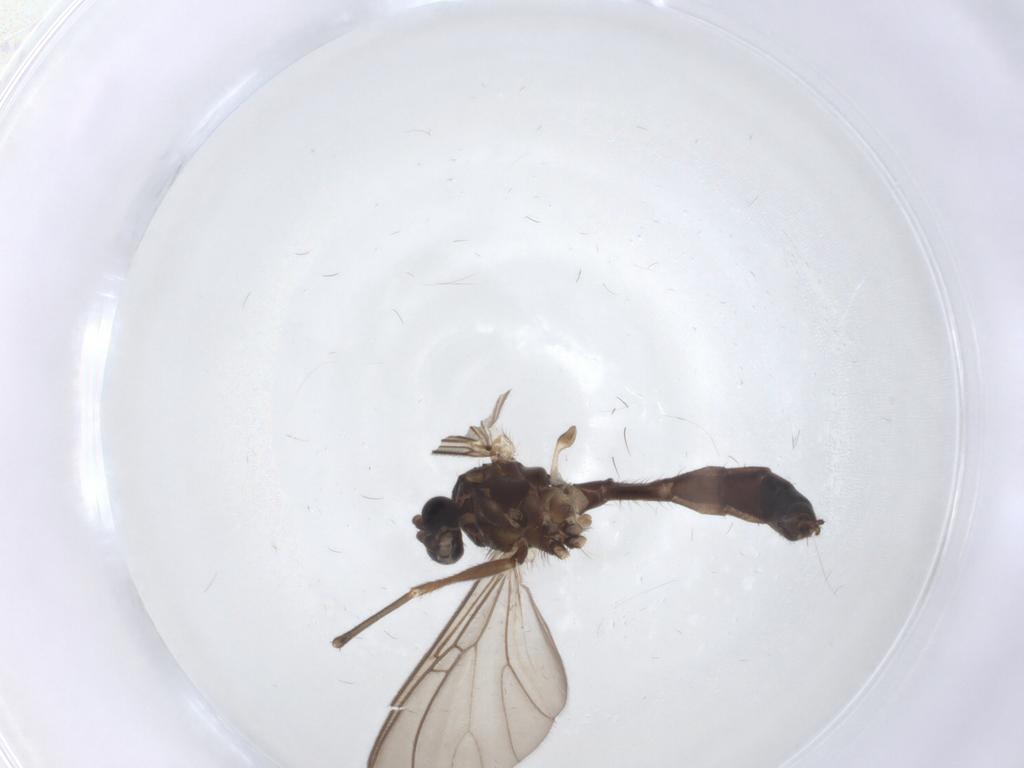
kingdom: Animalia
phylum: Arthropoda
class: Insecta
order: Diptera
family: Mycetophilidae
